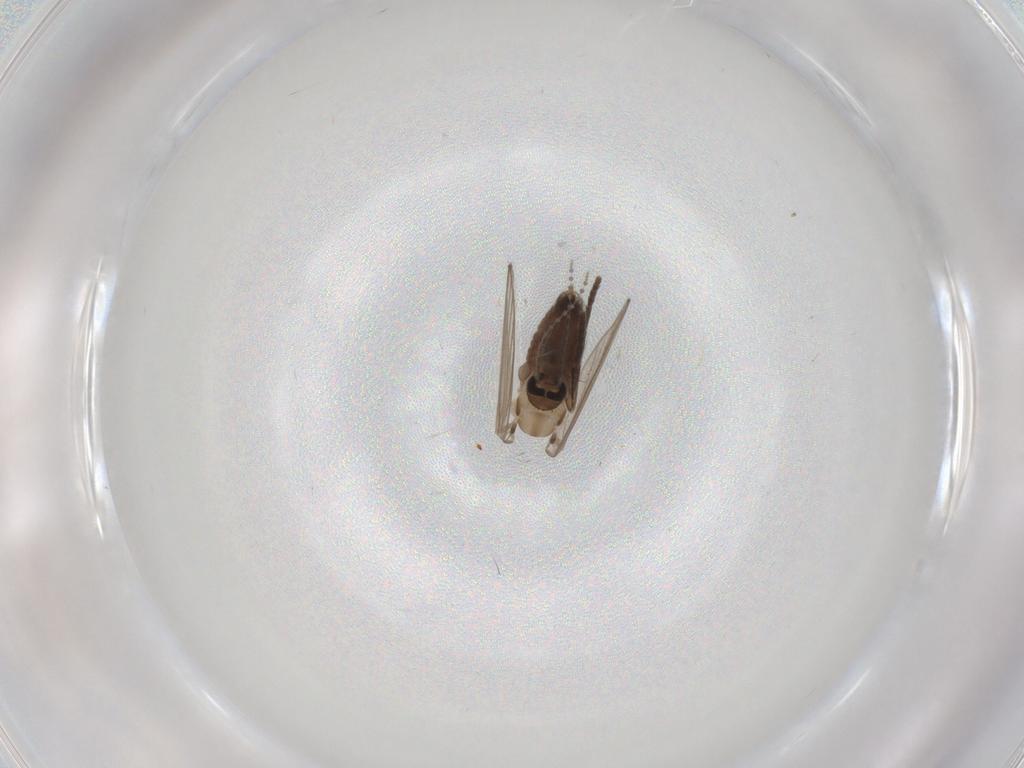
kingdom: Animalia
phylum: Arthropoda
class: Insecta
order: Diptera
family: Psychodidae
